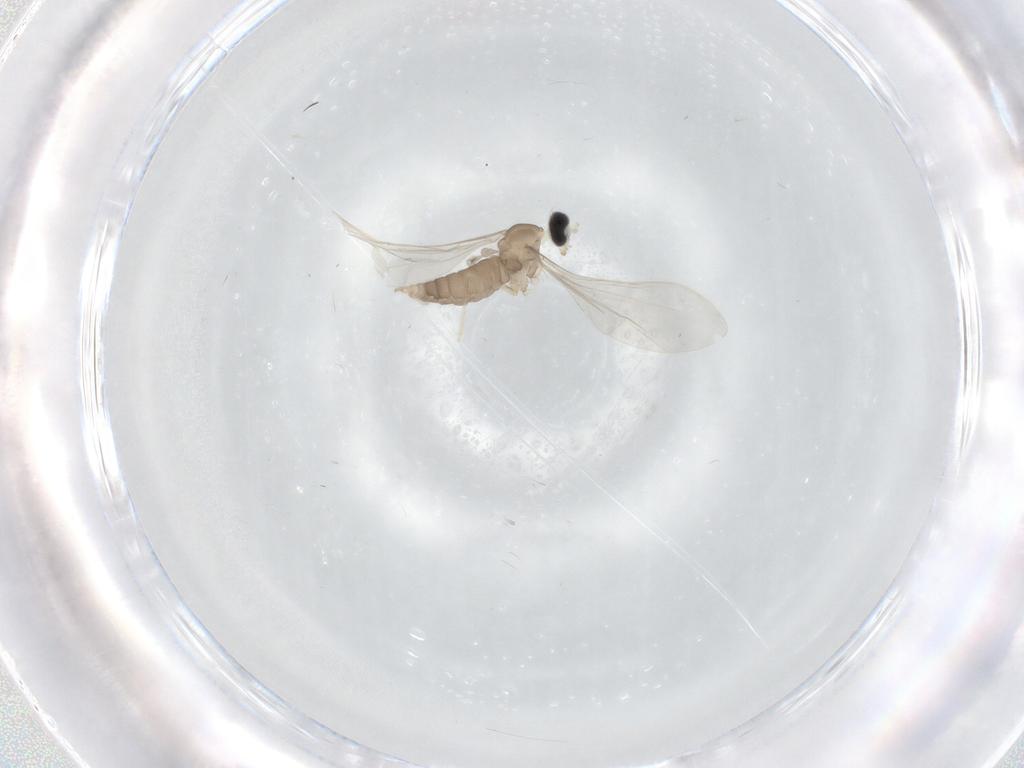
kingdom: Animalia
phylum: Arthropoda
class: Insecta
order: Diptera
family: Cecidomyiidae
